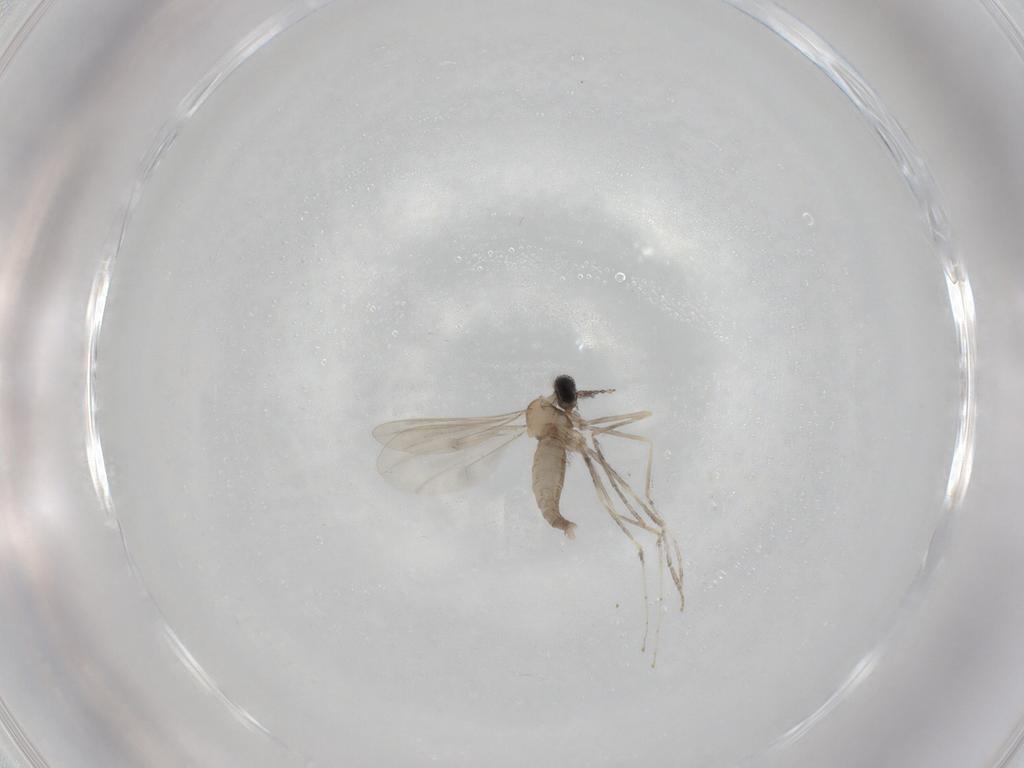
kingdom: Animalia
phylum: Arthropoda
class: Insecta
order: Diptera
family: Cecidomyiidae
